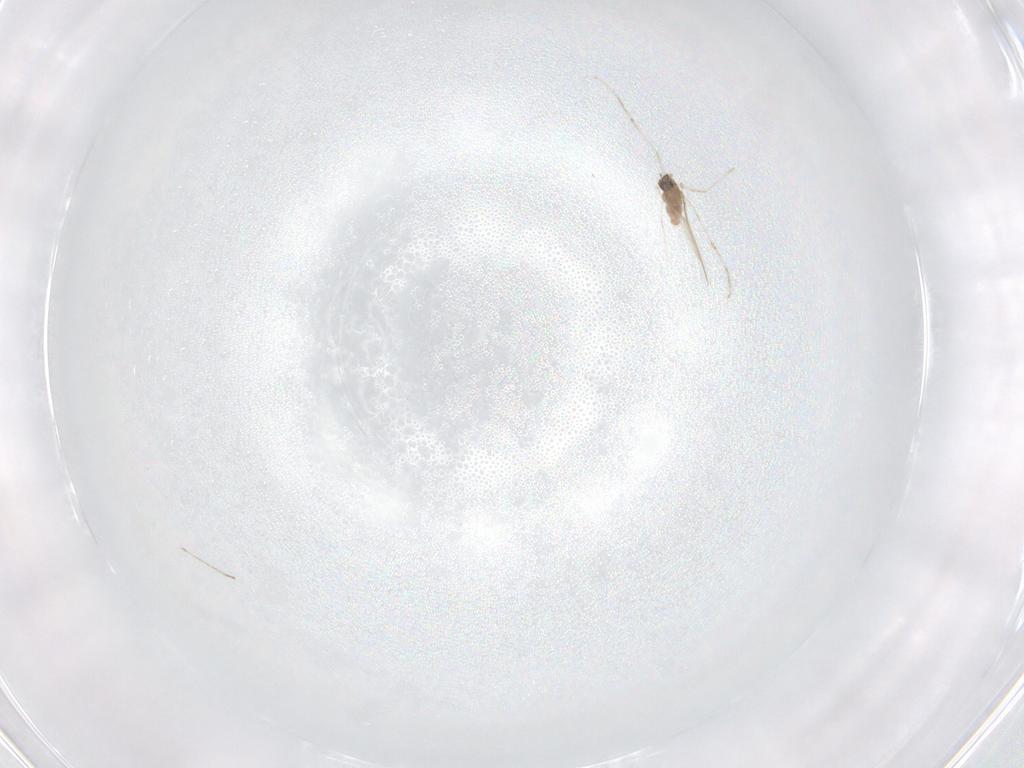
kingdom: Animalia
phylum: Arthropoda
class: Insecta
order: Diptera
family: Cecidomyiidae
